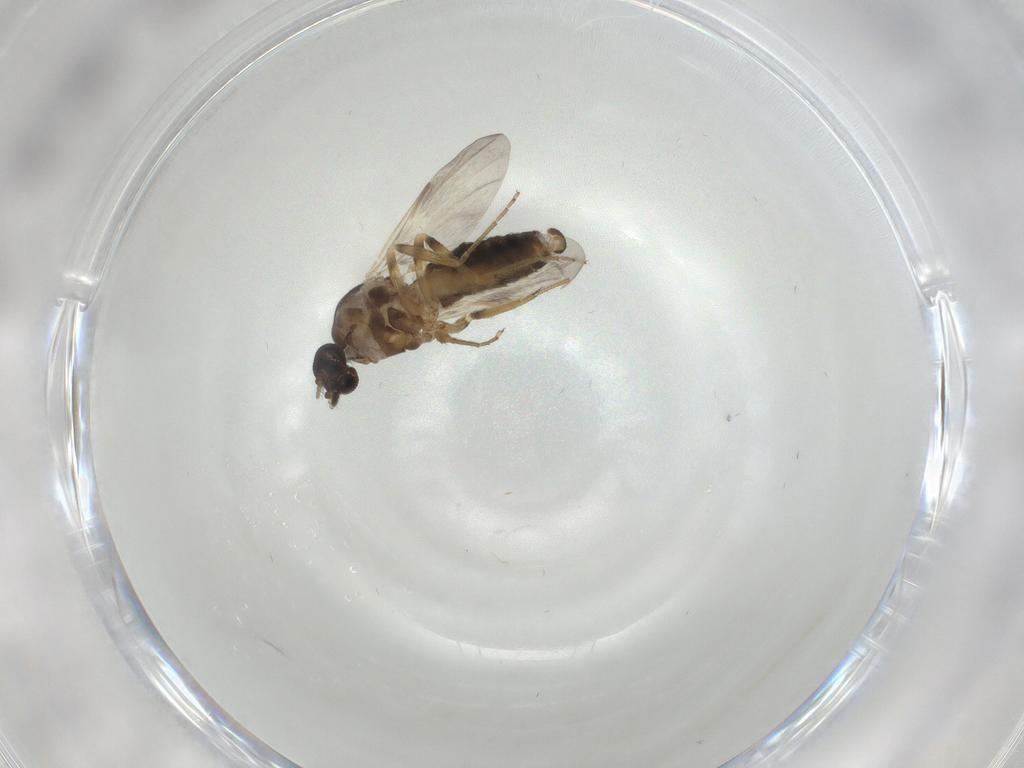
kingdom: Animalia
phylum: Arthropoda
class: Insecta
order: Diptera
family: Ceratopogonidae
